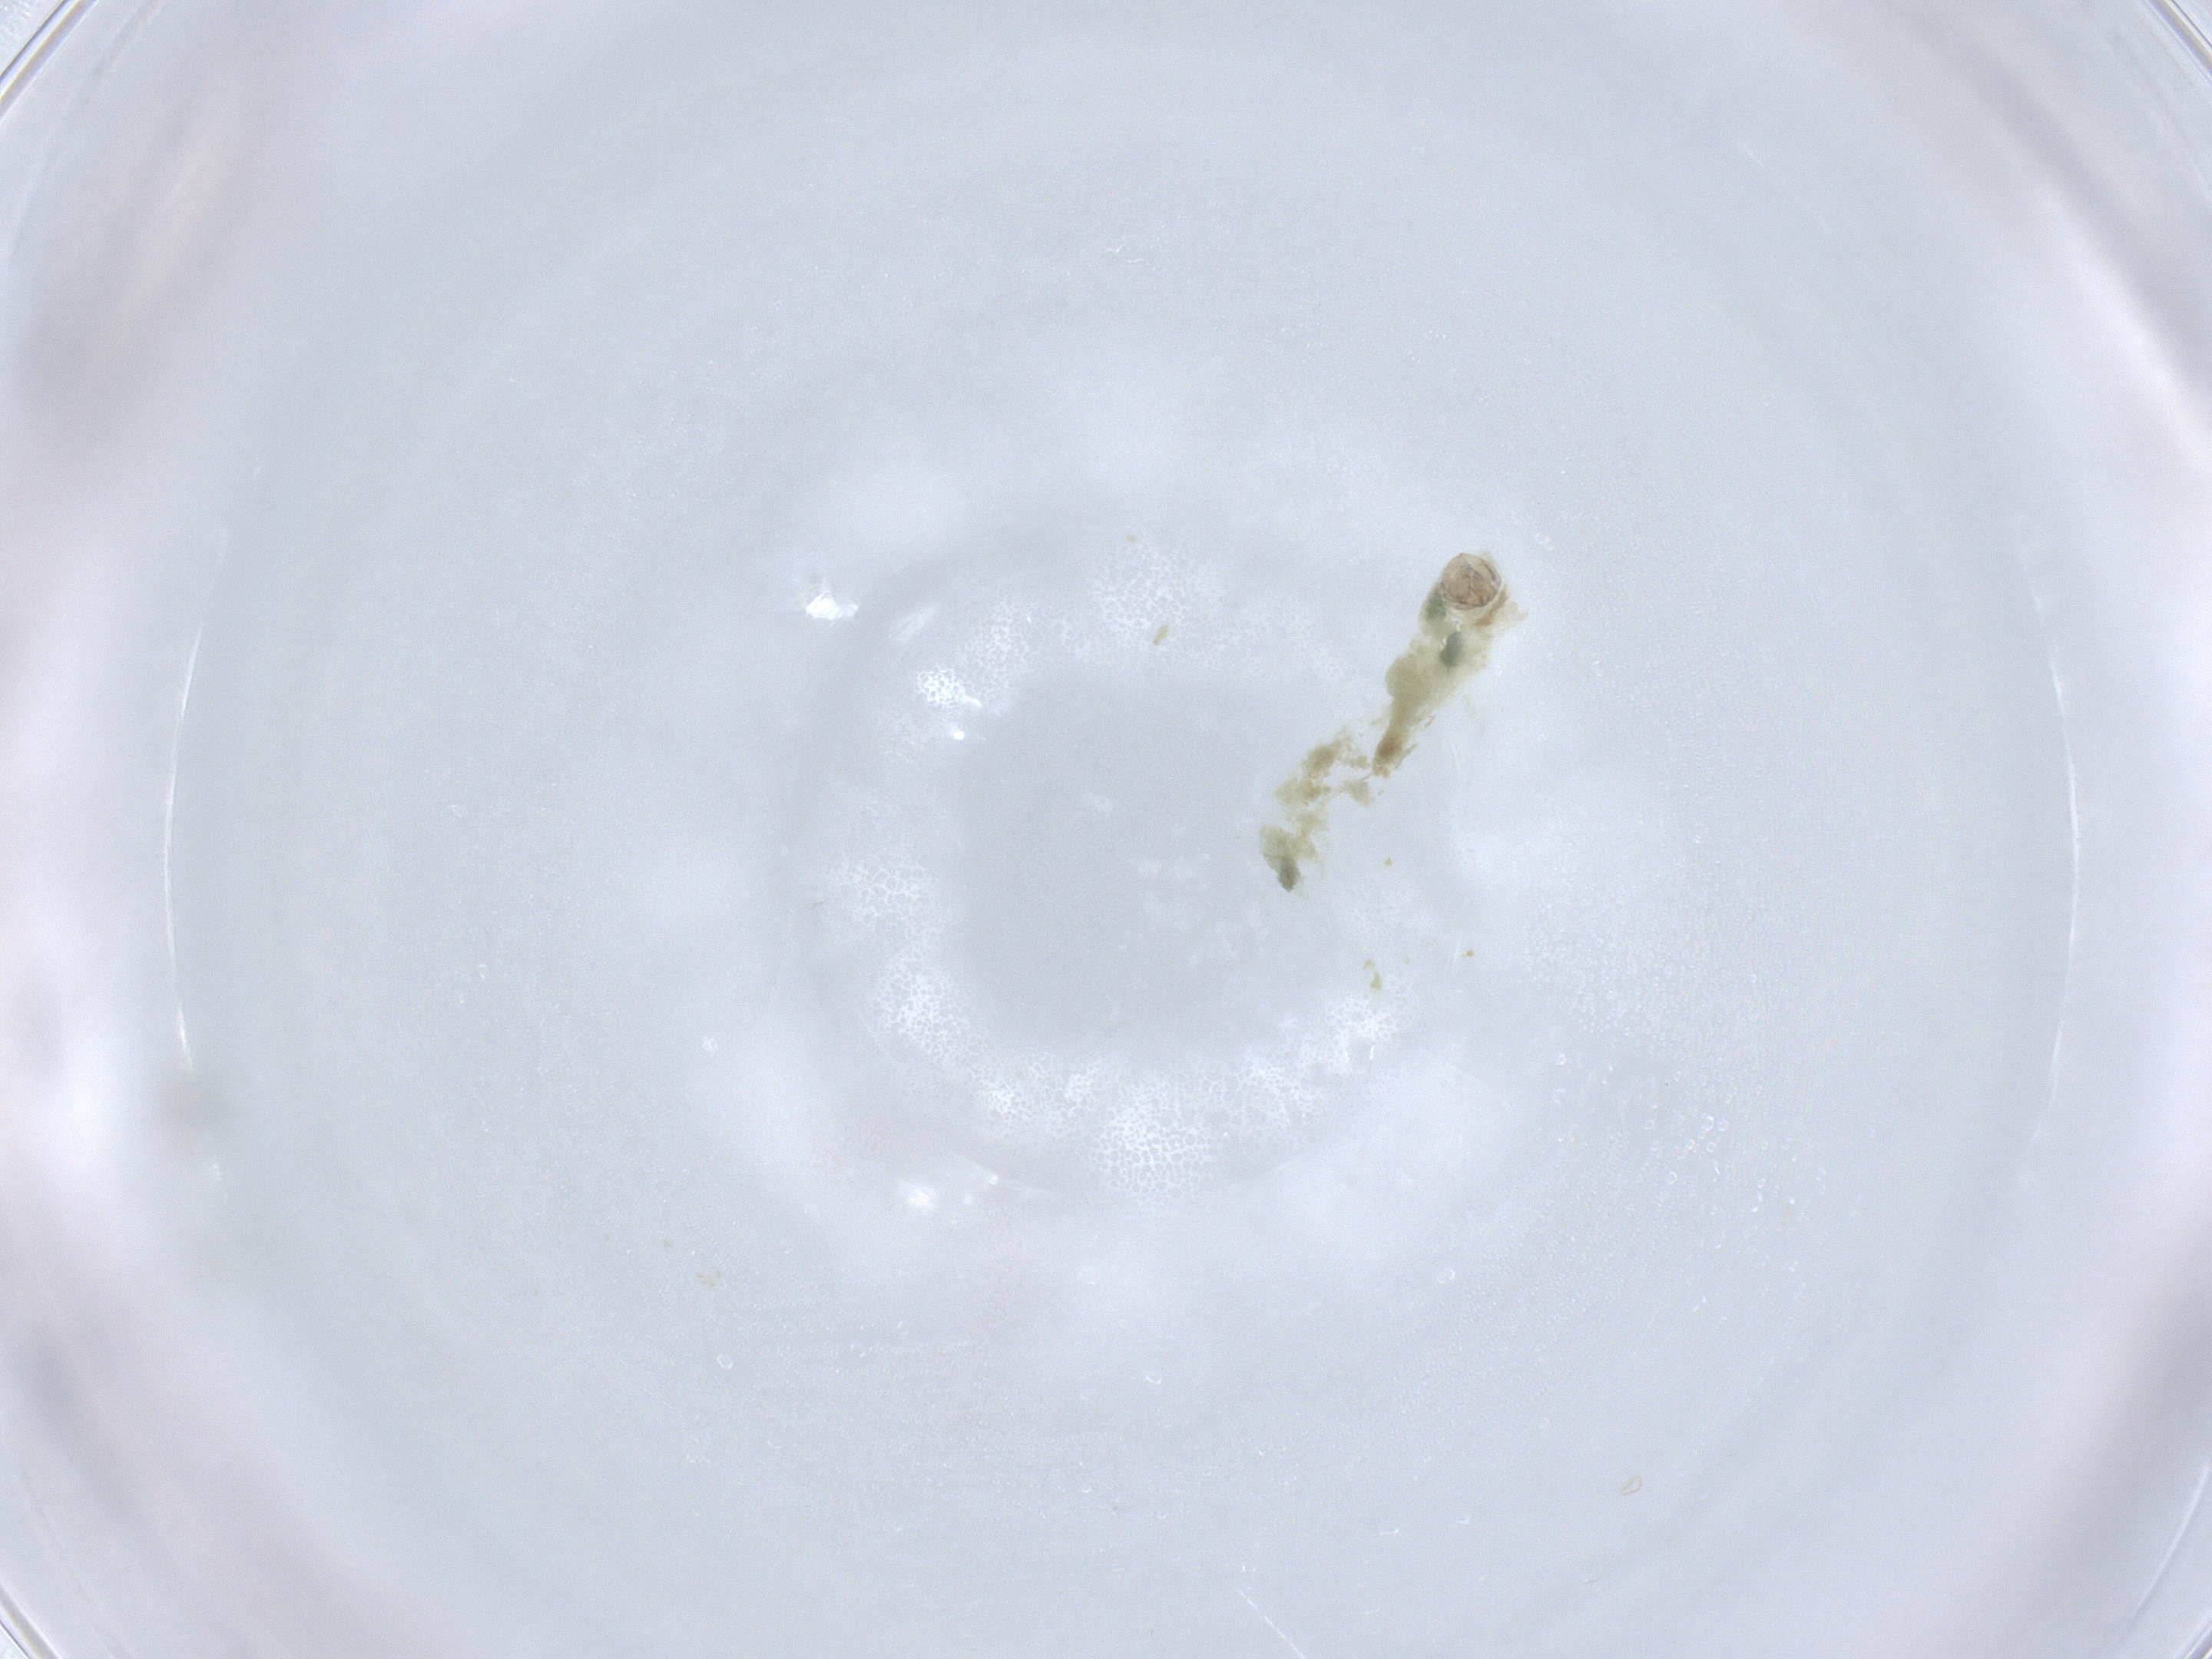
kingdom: Animalia
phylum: Arthropoda
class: Insecta
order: Diptera
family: Chironomidae
